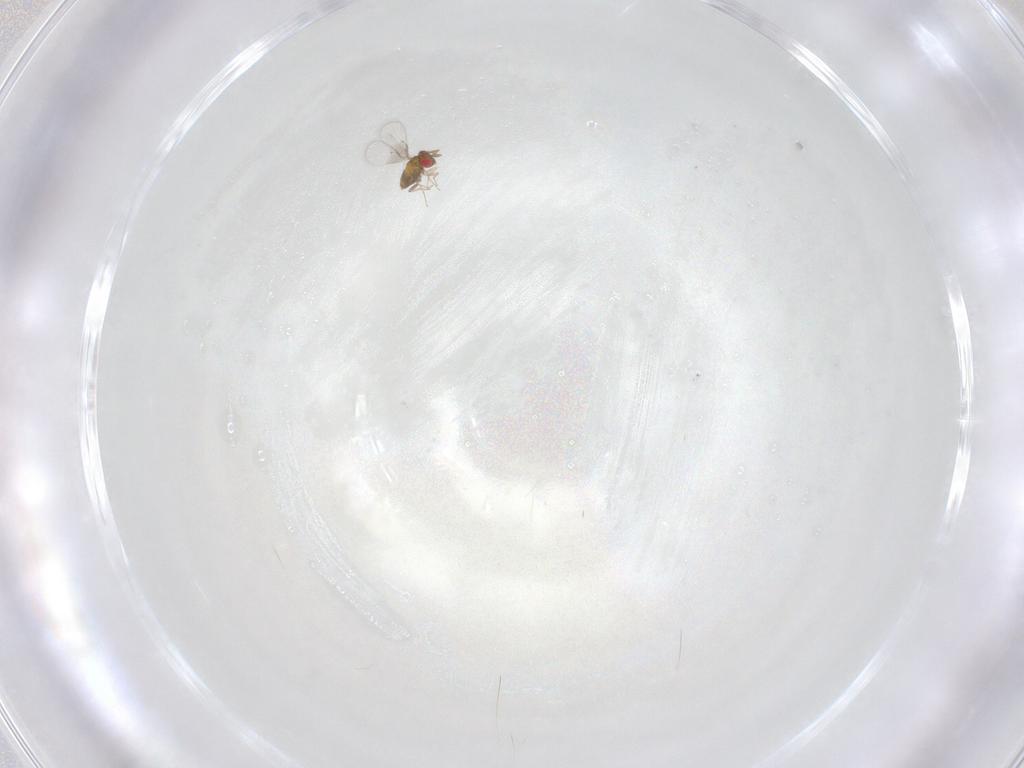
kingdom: Animalia
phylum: Arthropoda
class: Insecta
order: Hymenoptera
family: Trichogrammatidae
